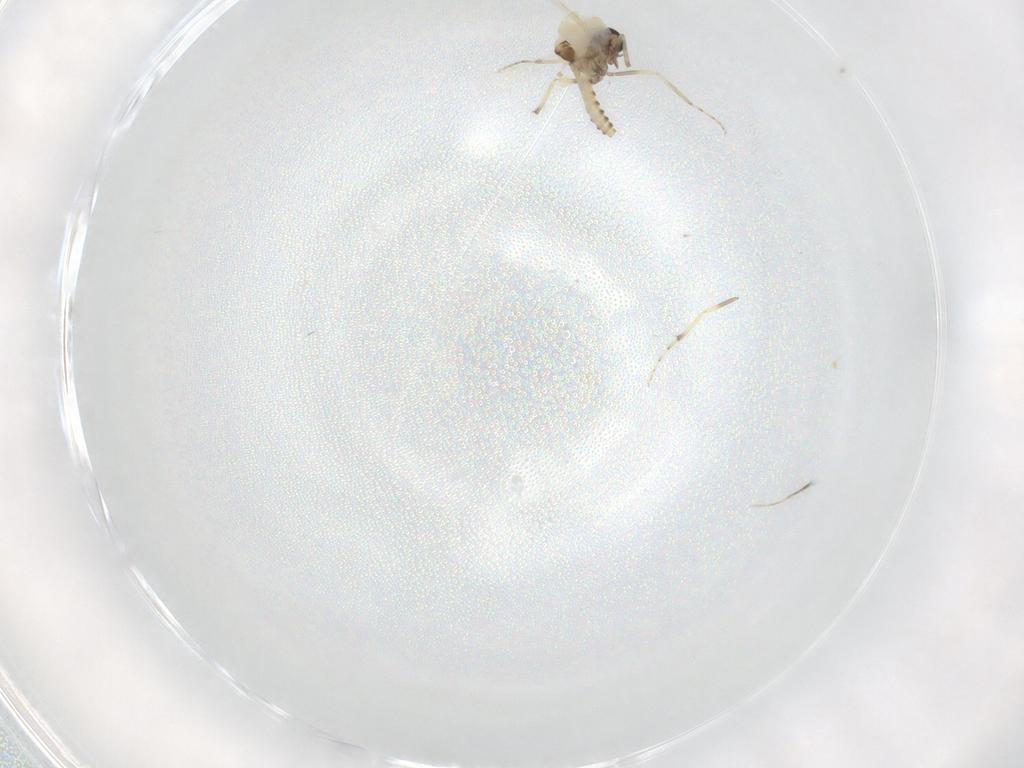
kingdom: Animalia
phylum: Arthropoda
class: Insecta
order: Diptera
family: Ceratopogonidae
